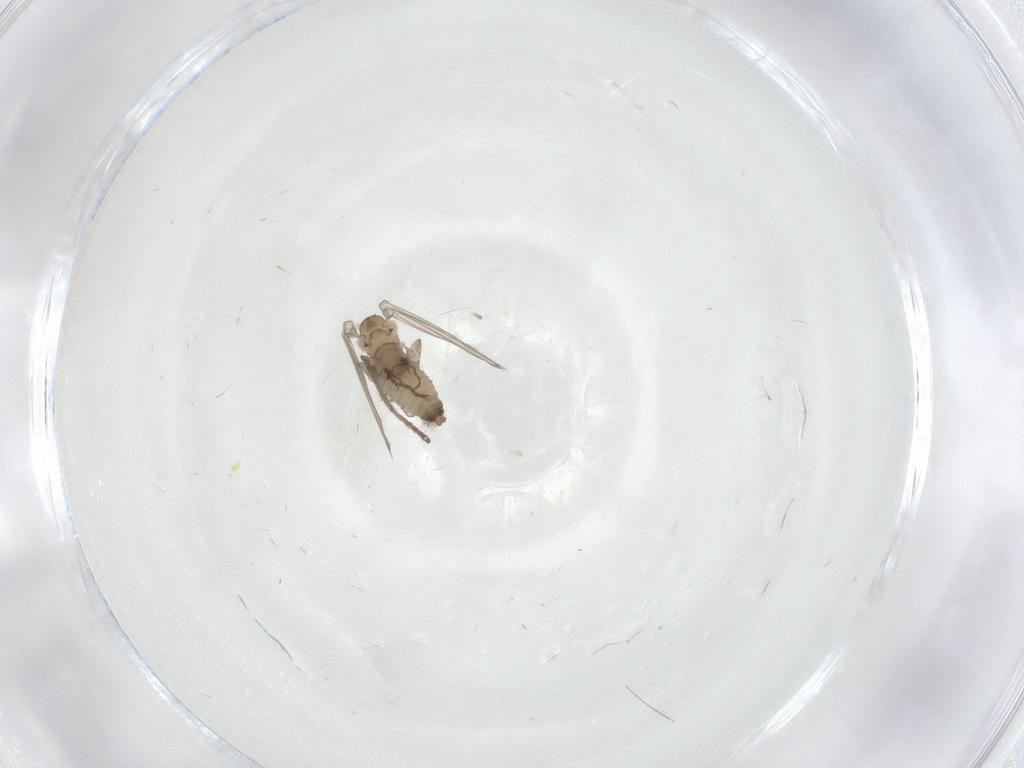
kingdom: Animalia
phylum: Arthropoda
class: Insecta
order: Diptera
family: Psychodidae
